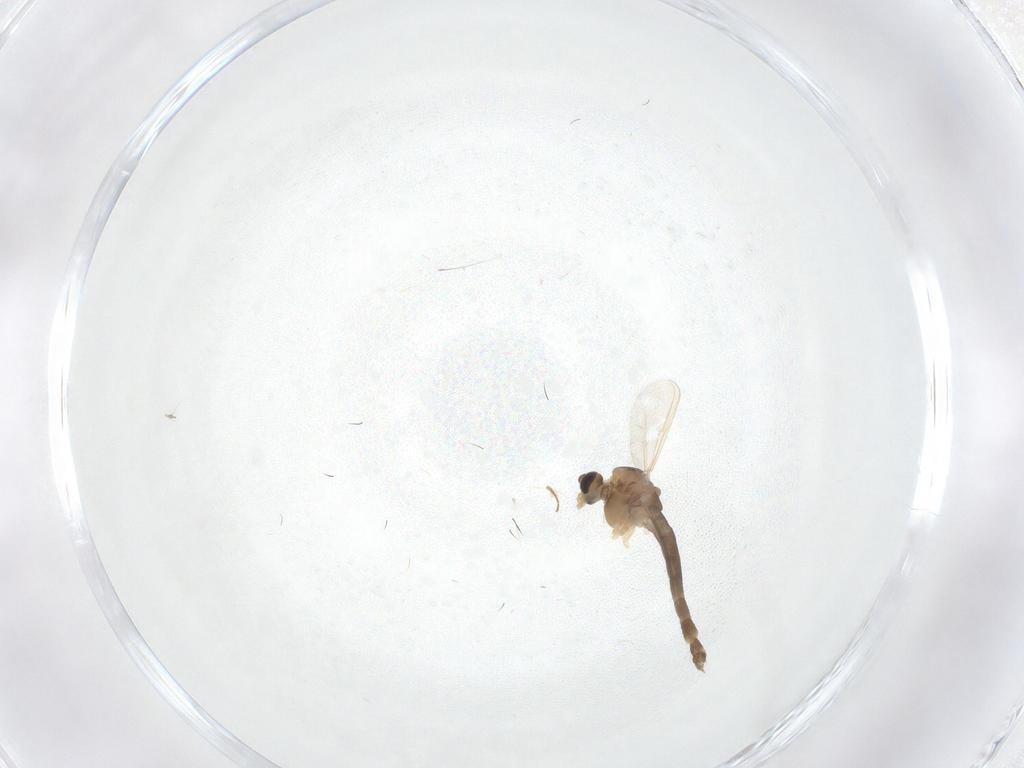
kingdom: Animalia
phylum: Arthropoda
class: Insecta
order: Diptera
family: Chironomidae
